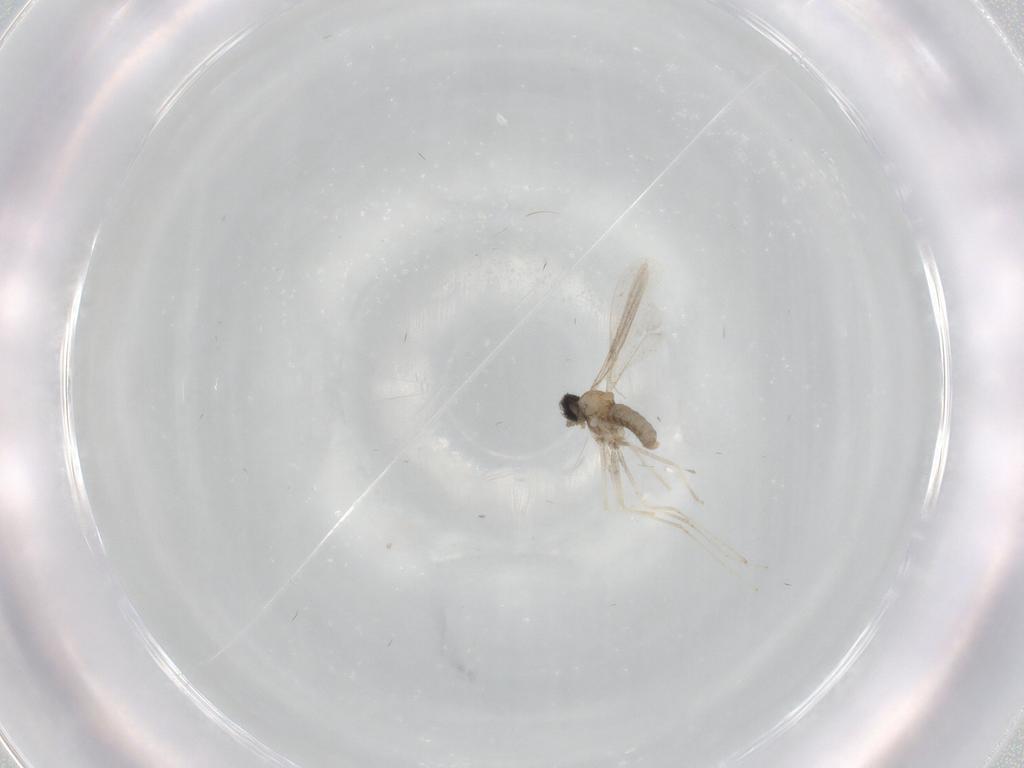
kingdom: Animalia
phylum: Arthropoda
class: Insecta
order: Diptera
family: Cecidomyiidae
